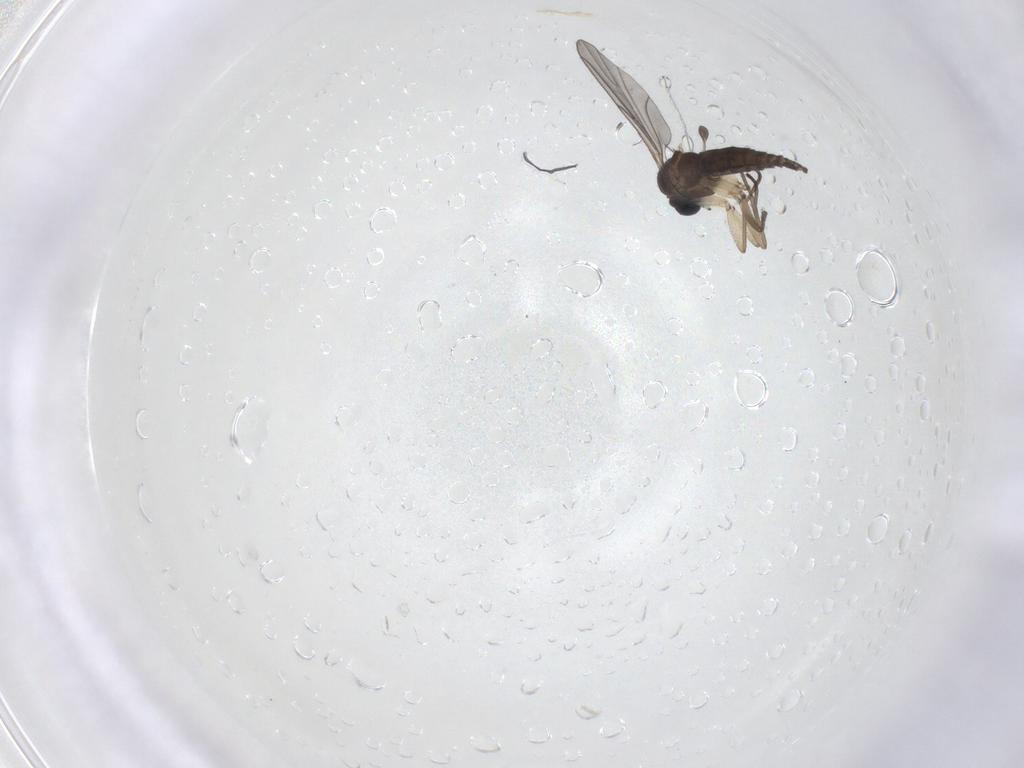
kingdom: Animalia
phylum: Arthropoda
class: Insecta
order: Diptera
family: Sciaridae
